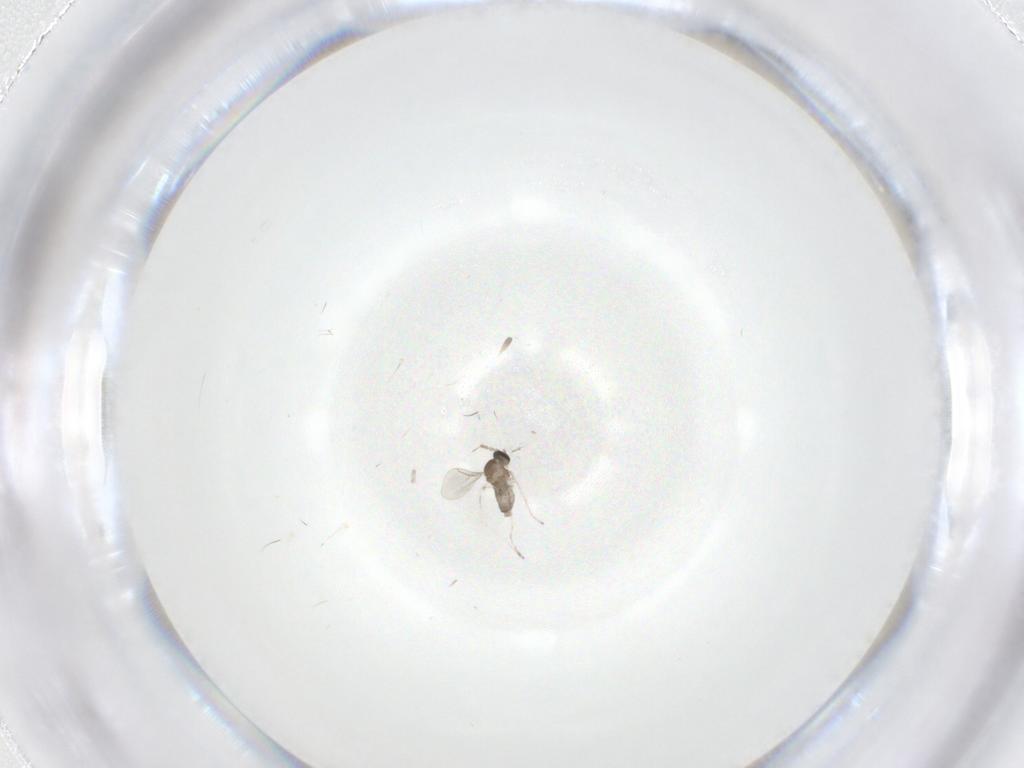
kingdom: Animalia
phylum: Arthropoda
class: Insecta
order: Diptera
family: Cecidomyiidae
